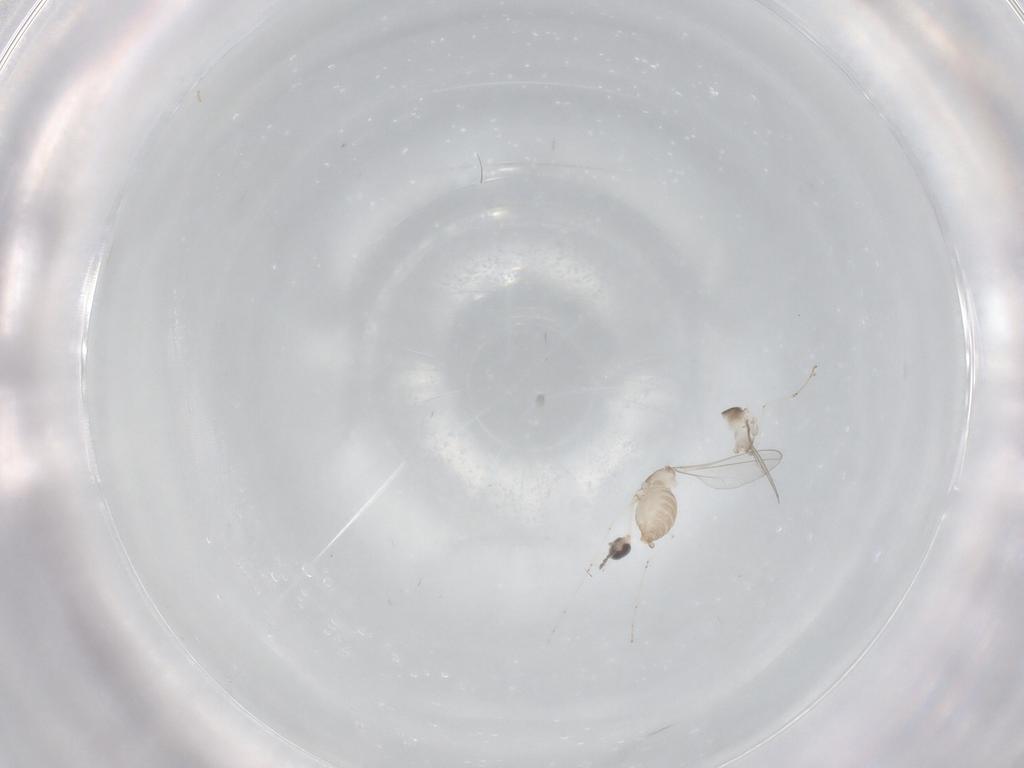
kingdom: Animalia
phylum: Arthropoda
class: Insecta
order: Diptera
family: Cecidomyiidae
